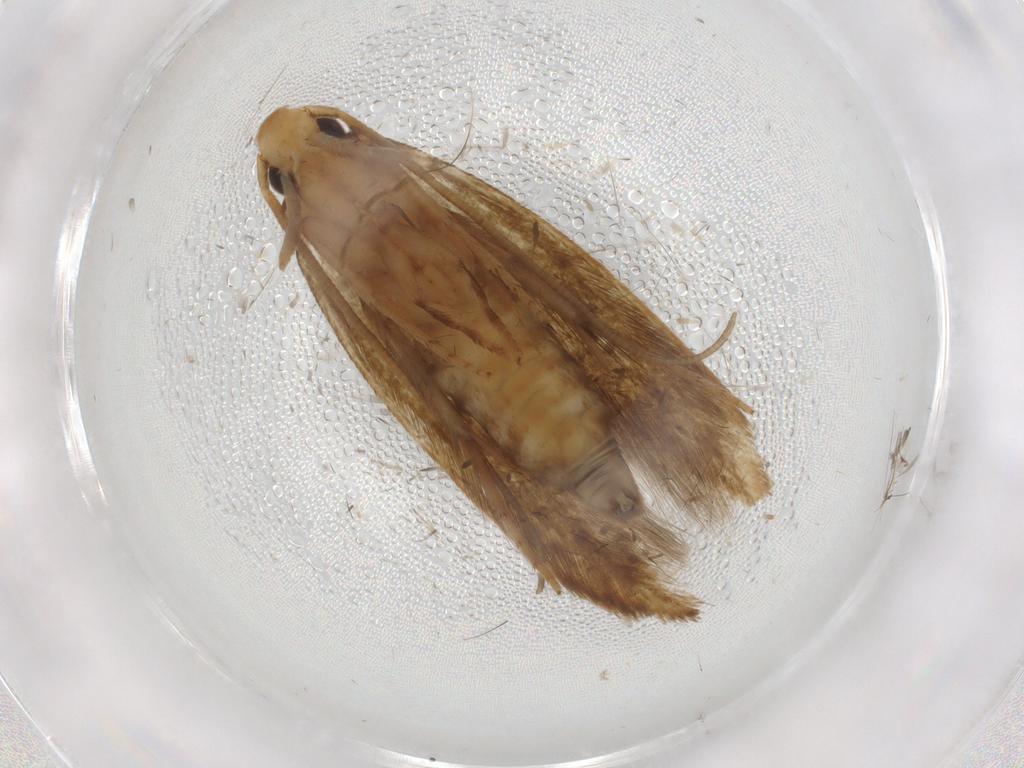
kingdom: Animalia
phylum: Arthropoda
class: Insecta
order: Lepidoptera
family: Tineidae
